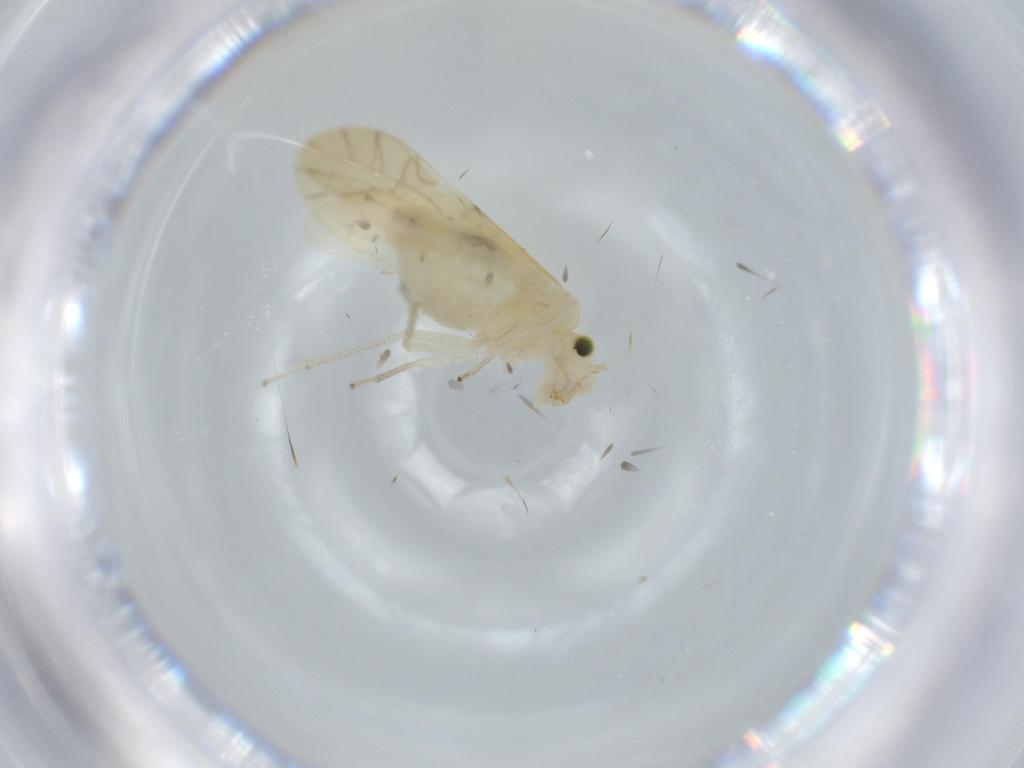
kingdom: Animalia
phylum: Arthropoda
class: Insecta
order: Psocodea
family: Caeciliusidae
